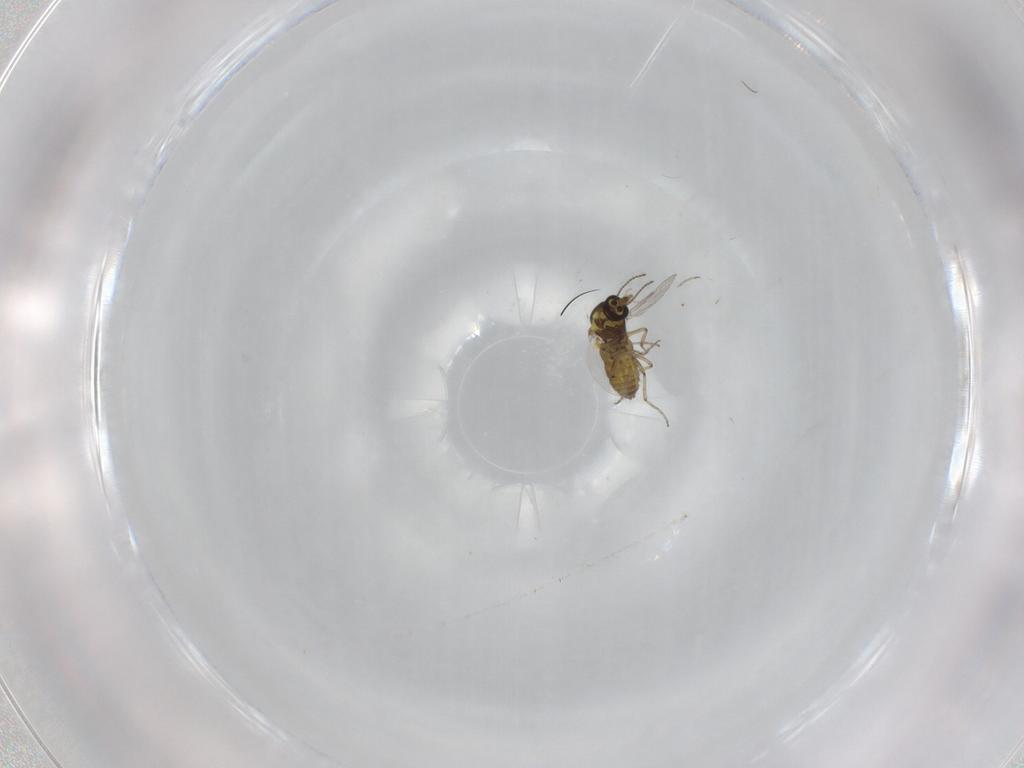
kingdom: Animalia
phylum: Arthropoda
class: Insecta
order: Diptera
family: Ceratopogonidae
